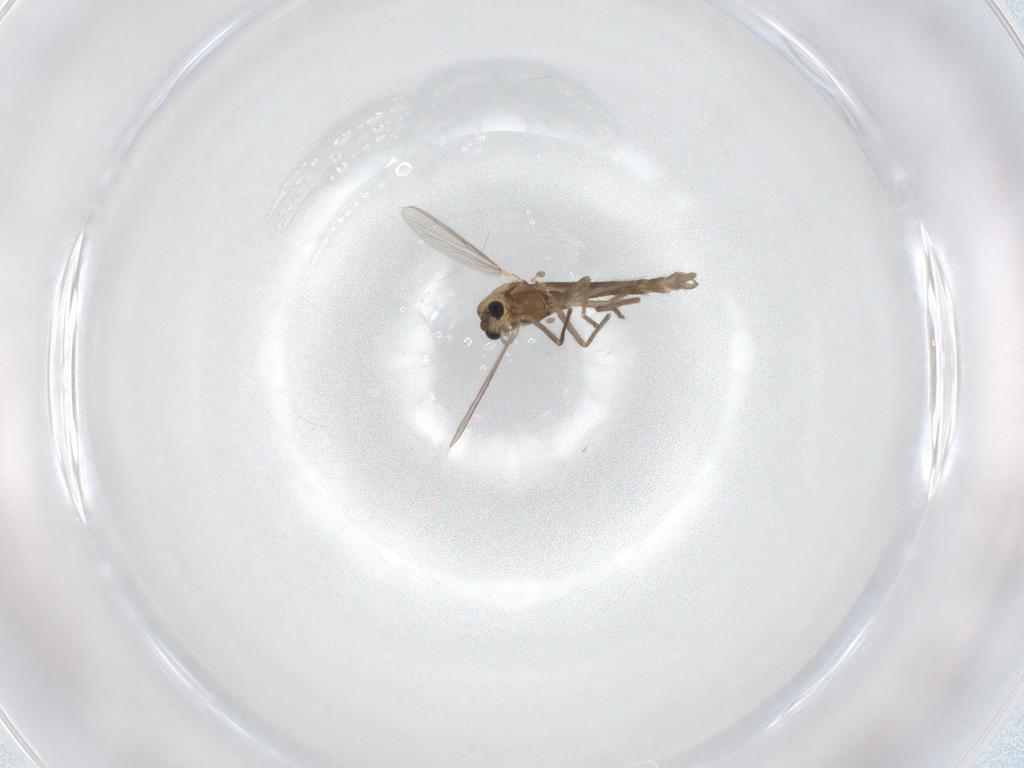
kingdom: Animalia
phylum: Arthropoda
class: Insecta
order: Diptera
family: Chironomidae
